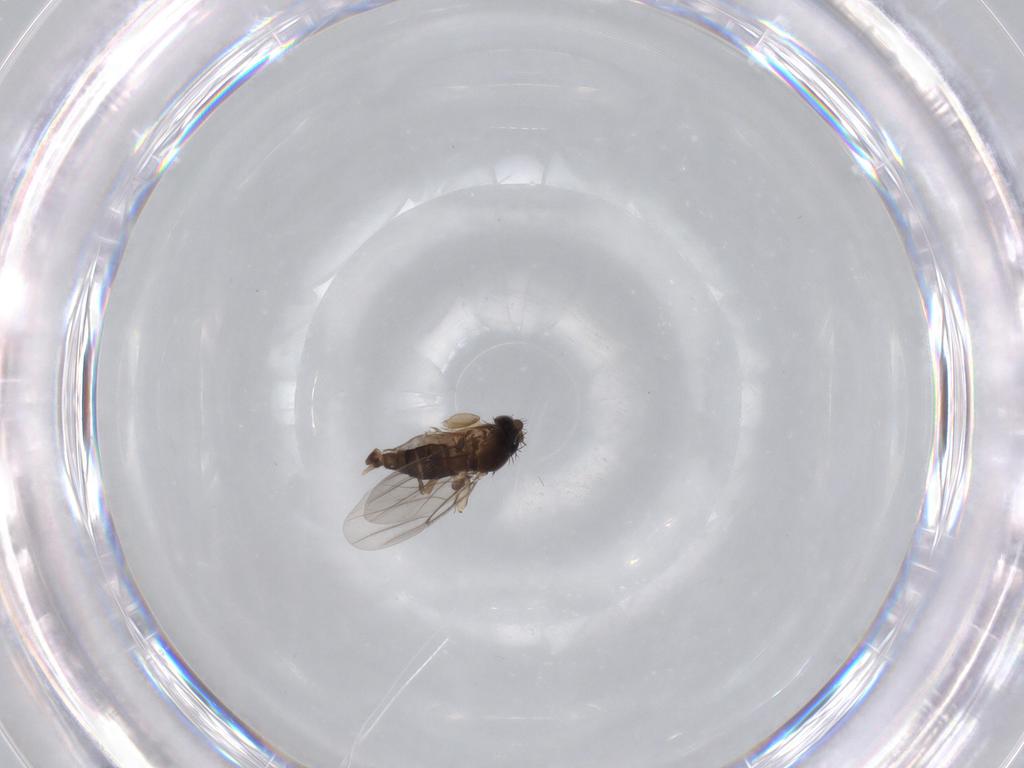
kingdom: Animalia
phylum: Arthropoda
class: Insecta
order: Diptera
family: Phoridae
